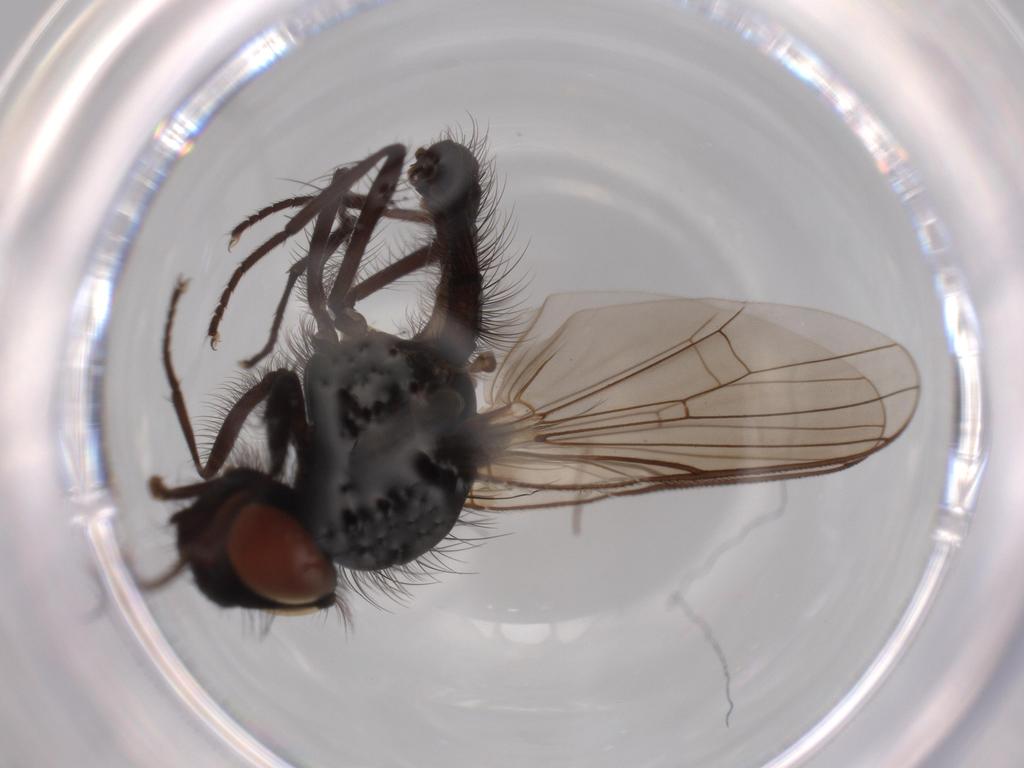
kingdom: Animalia
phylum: Arthropoda
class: Insecta
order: Diptera
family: Anthomyiidae
